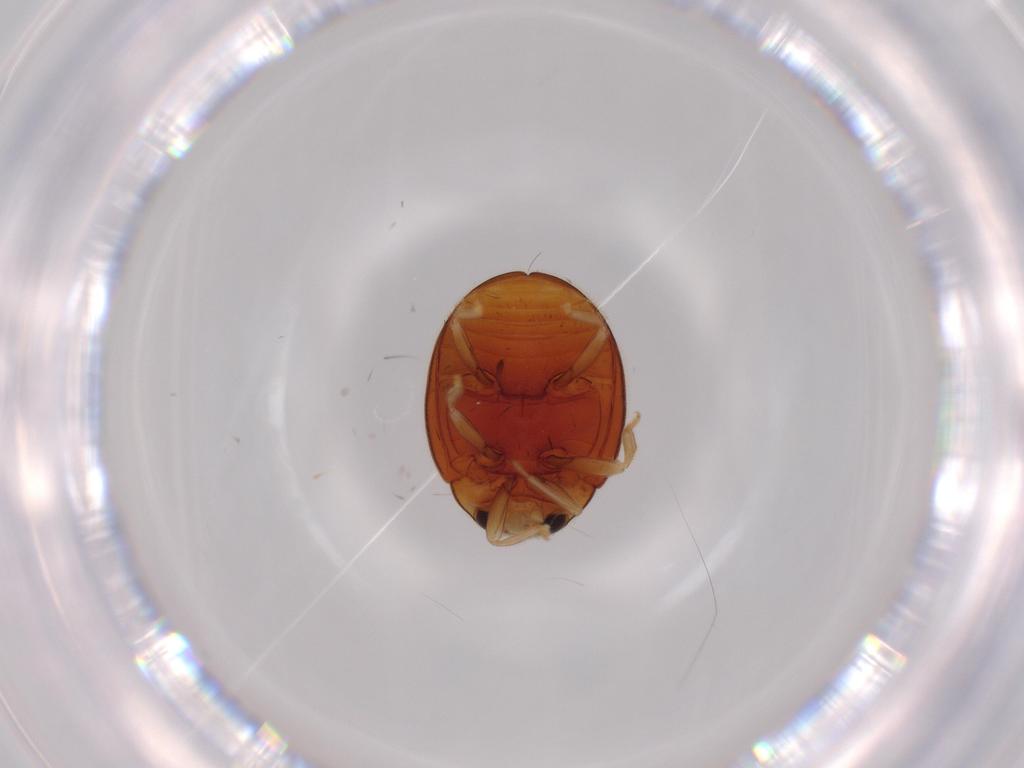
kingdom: Animalia
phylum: Arthropoda
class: Insecta
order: Coleoptera
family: Coccinellidae
